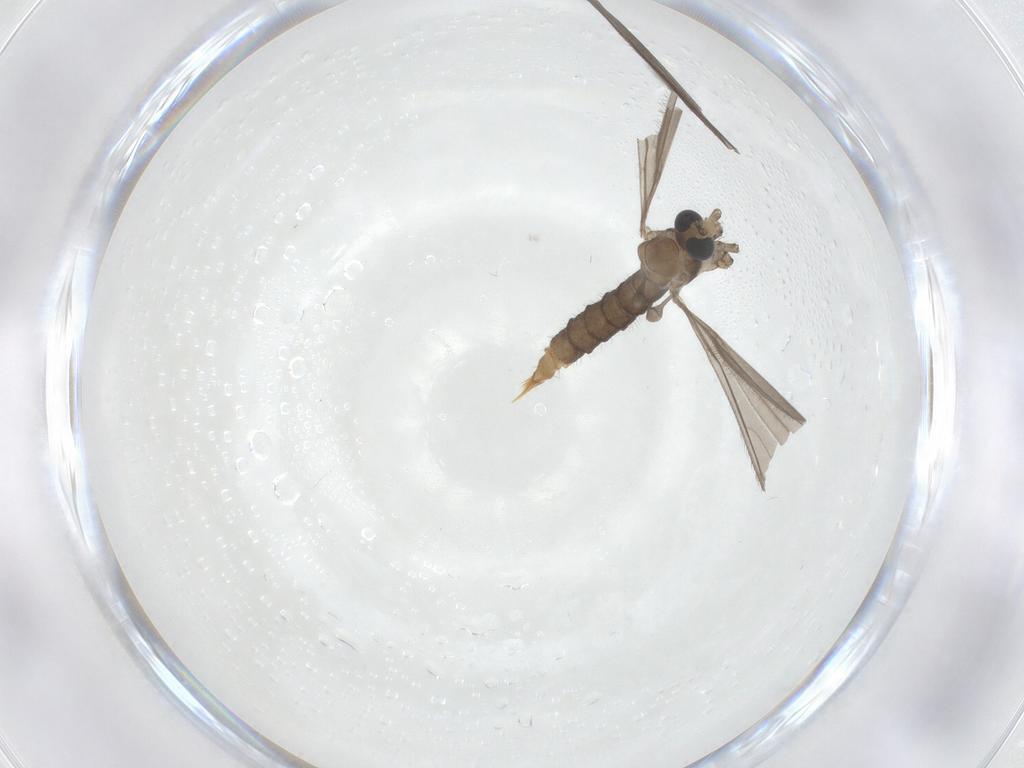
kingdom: Animalia
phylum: Arthropoda
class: Insecta
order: Diptera
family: Limoniidae
